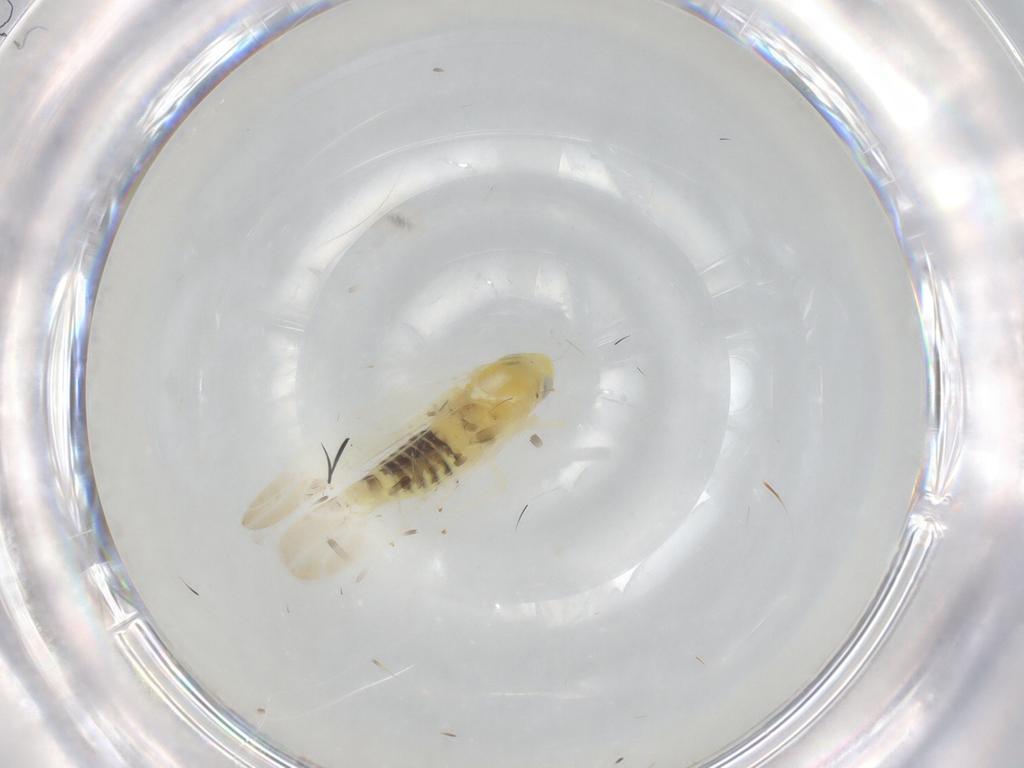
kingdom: Animalia
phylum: Arthropoda
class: Insecta
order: Hemiptera
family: Cicadellidae
